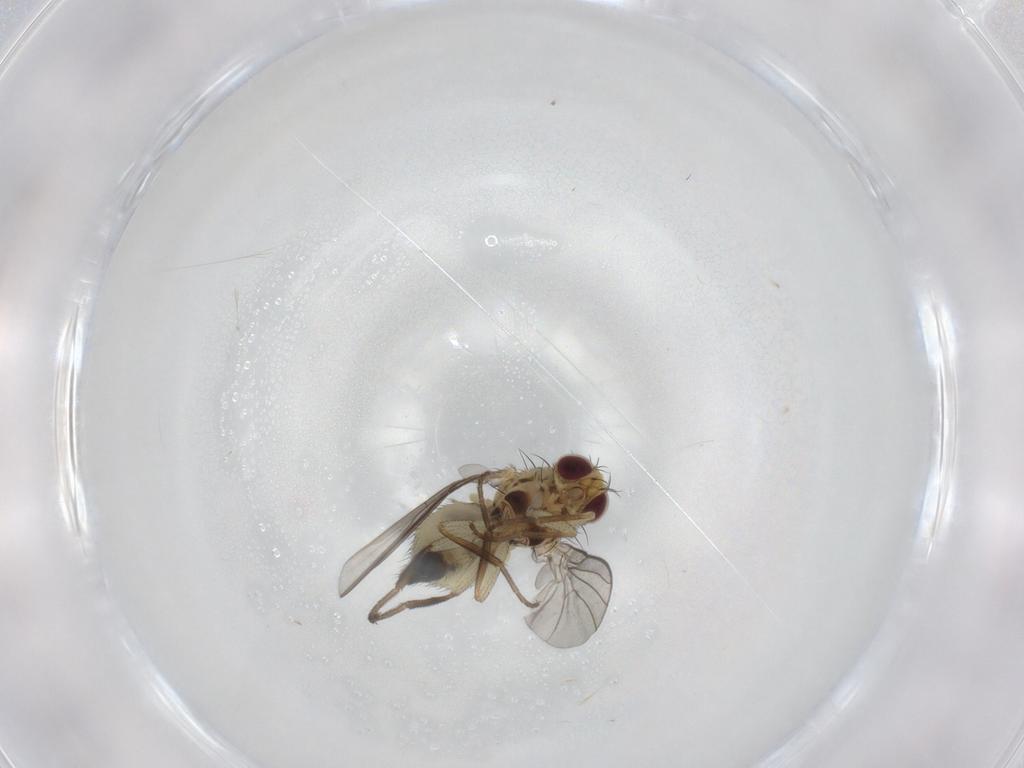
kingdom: Animalia
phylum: Arthropoda
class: Insecta
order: Diptera
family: Agromyzidae
